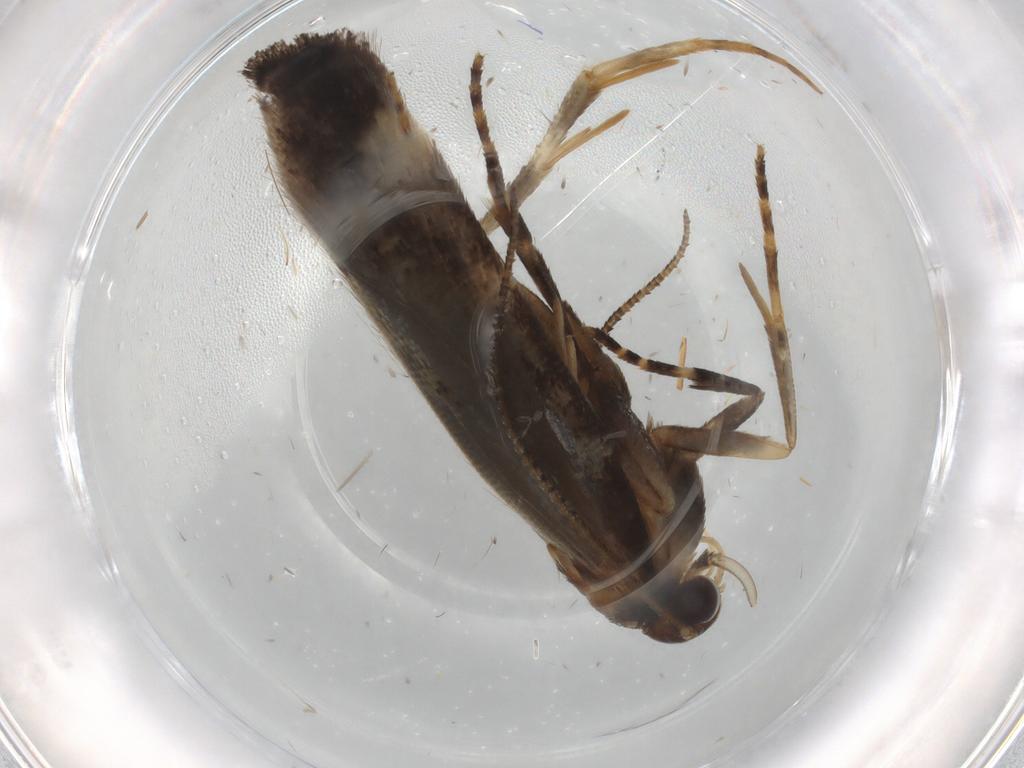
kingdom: Animalia
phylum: Arthropoda
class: Insecta
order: Lepidoptera
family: Gelechiidae
